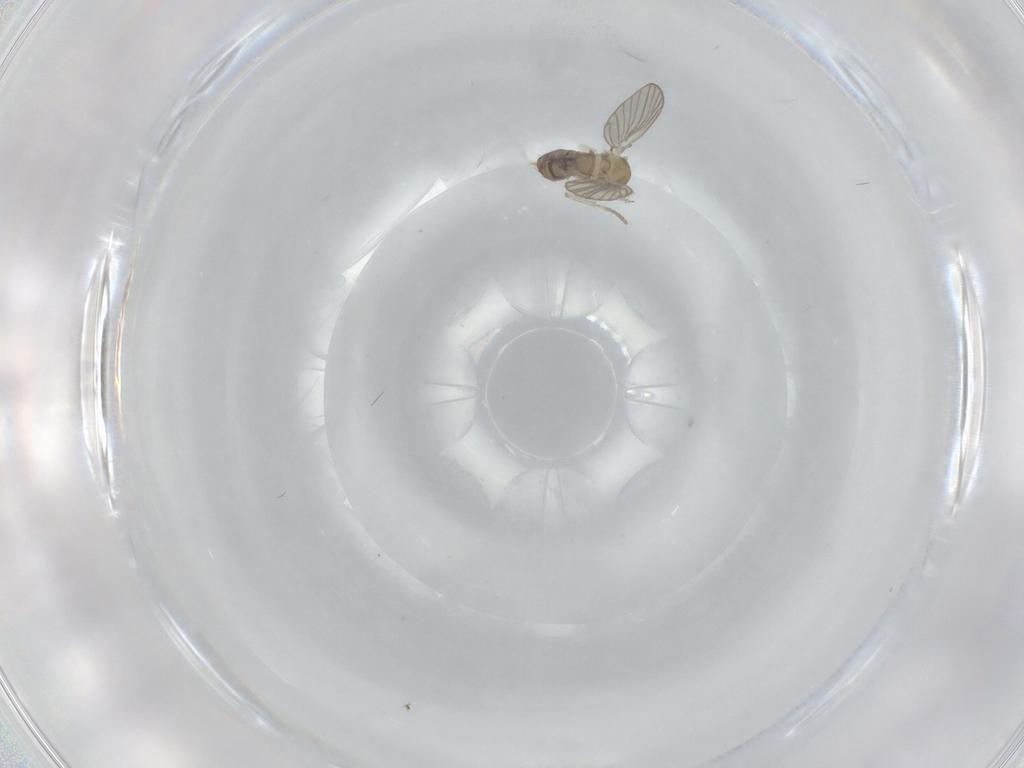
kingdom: Animalia
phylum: Arthropoda
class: Insecta
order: Diptera
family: Psychodidae
